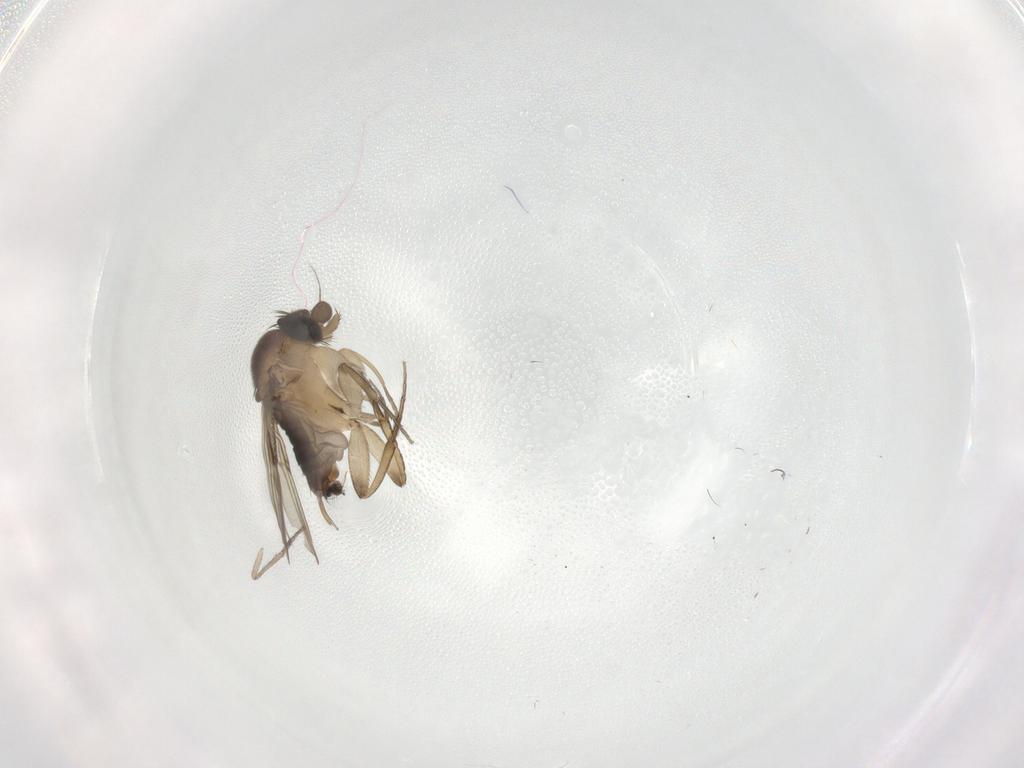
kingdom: Animalia
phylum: Arthropoda
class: Insecta
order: Diptera
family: Phoridae
